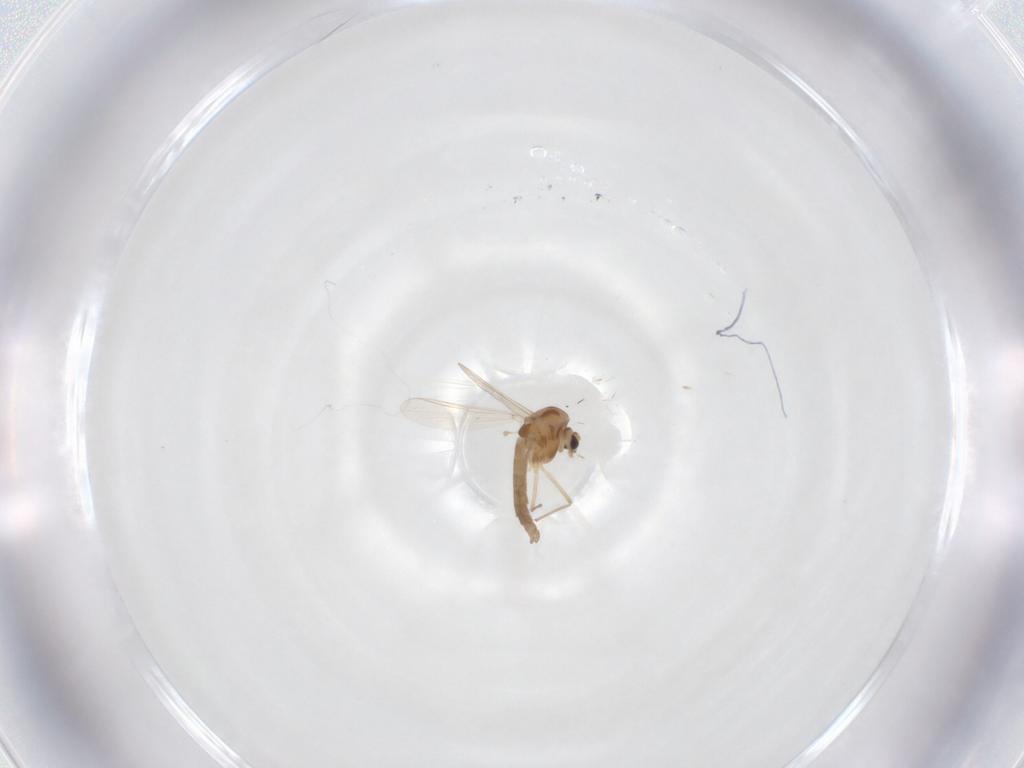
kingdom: Animalia
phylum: Arthropoda
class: Insecta
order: Diptera
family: Chironomidae
